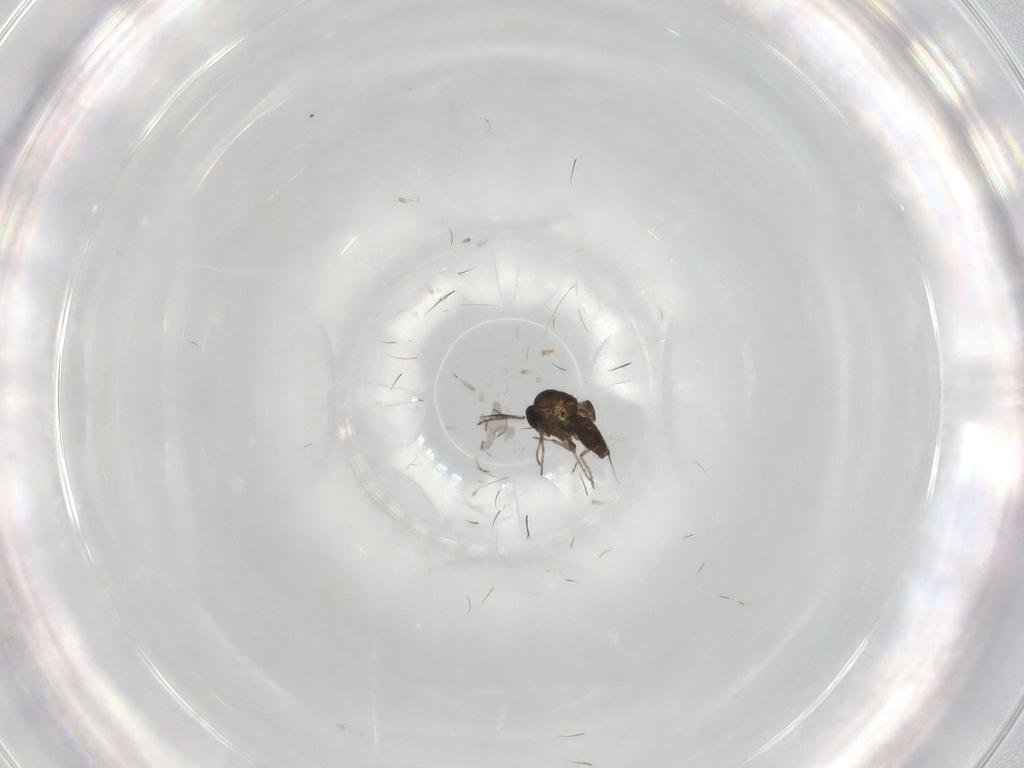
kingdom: Animalia
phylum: Arthropoda
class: Insecta
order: Diptera
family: Ceratopogonidae
